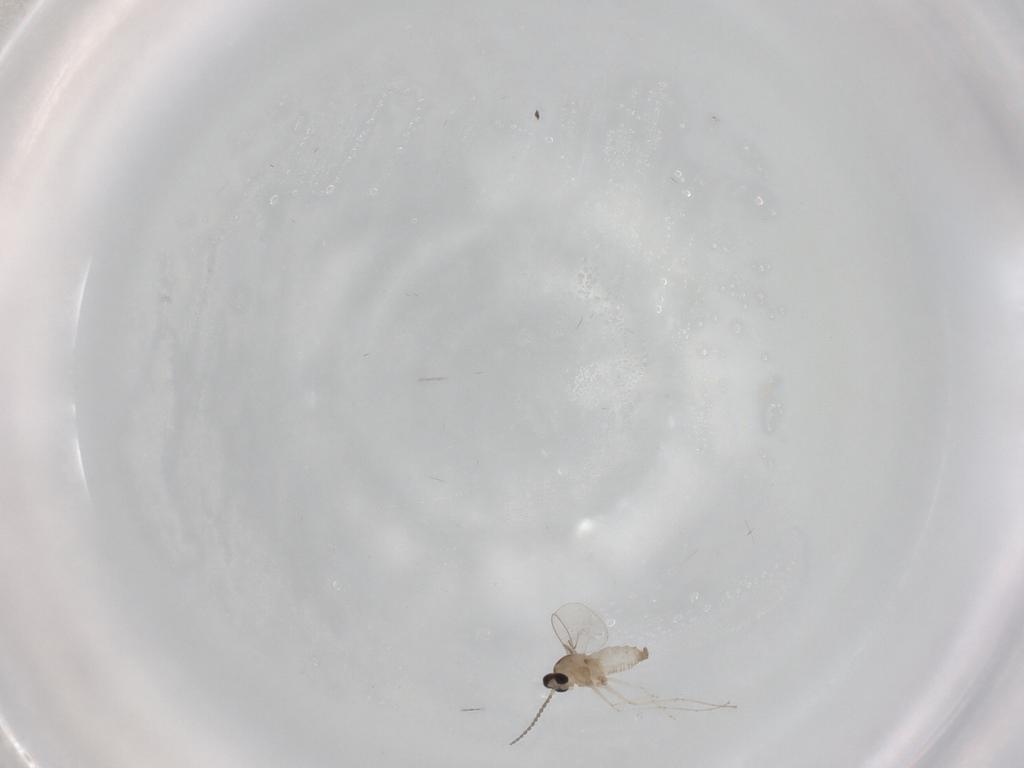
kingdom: Animalia
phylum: Arthropoda
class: Insecta
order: Diptera
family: Cecidomyiidae
